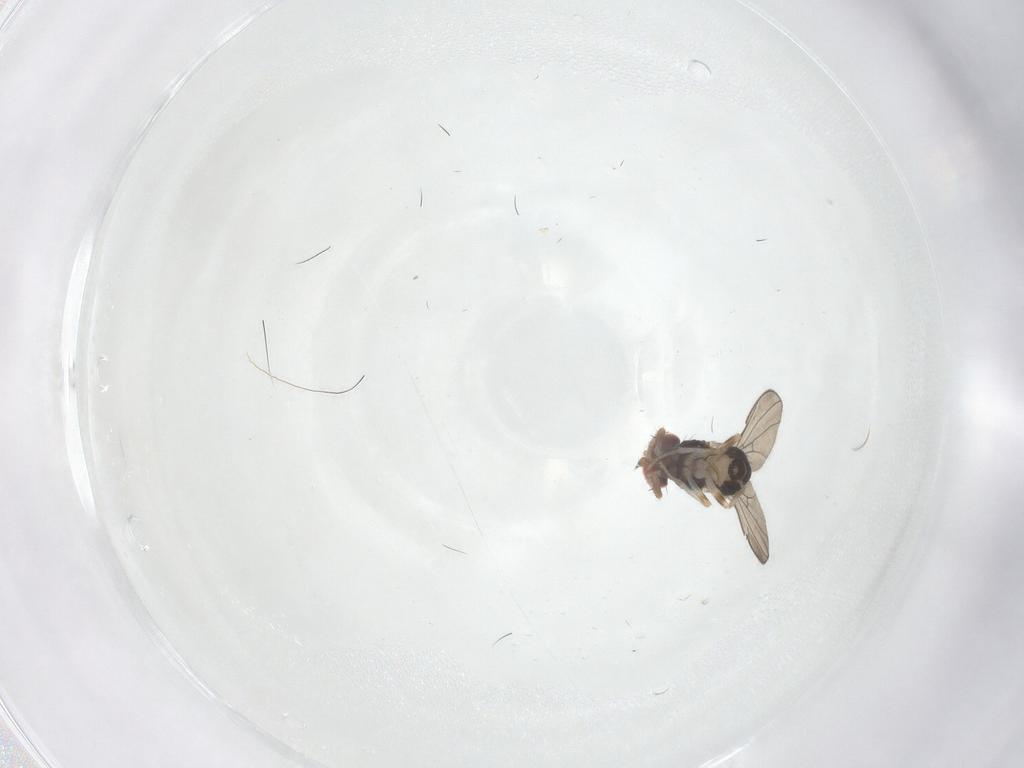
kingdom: Animalia
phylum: Arthropoda
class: Insecta
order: Diptera
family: Drosophilidae
